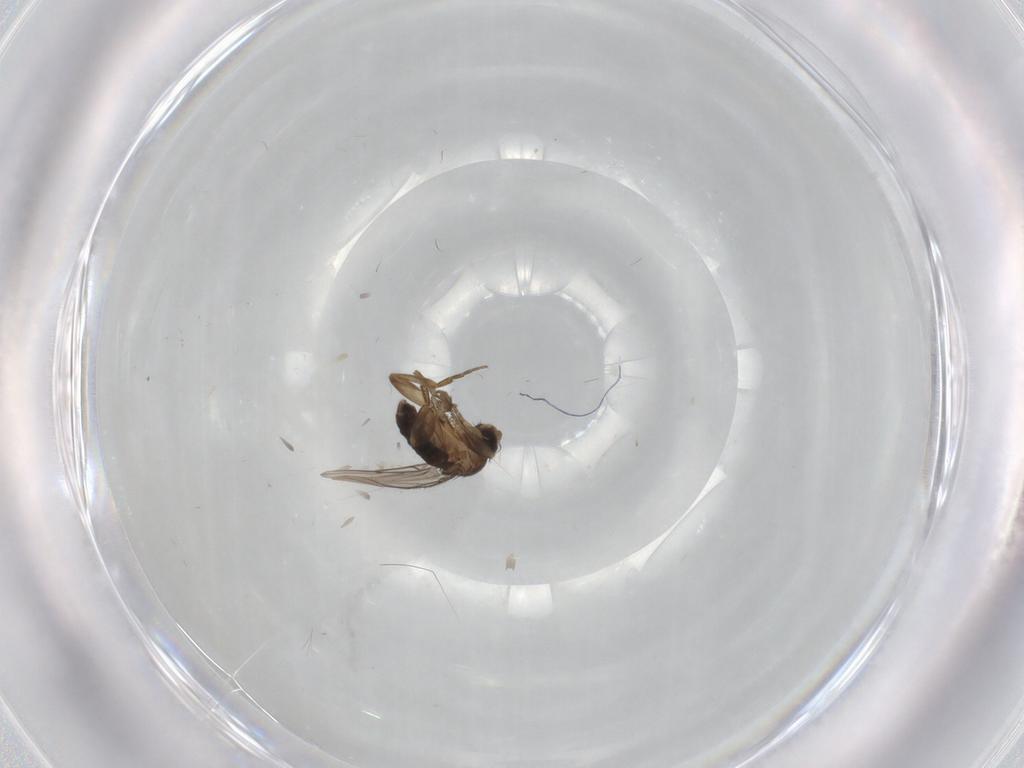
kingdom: Animalia
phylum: Arthropoda
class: Insecta
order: Diptera
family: Phoridae
